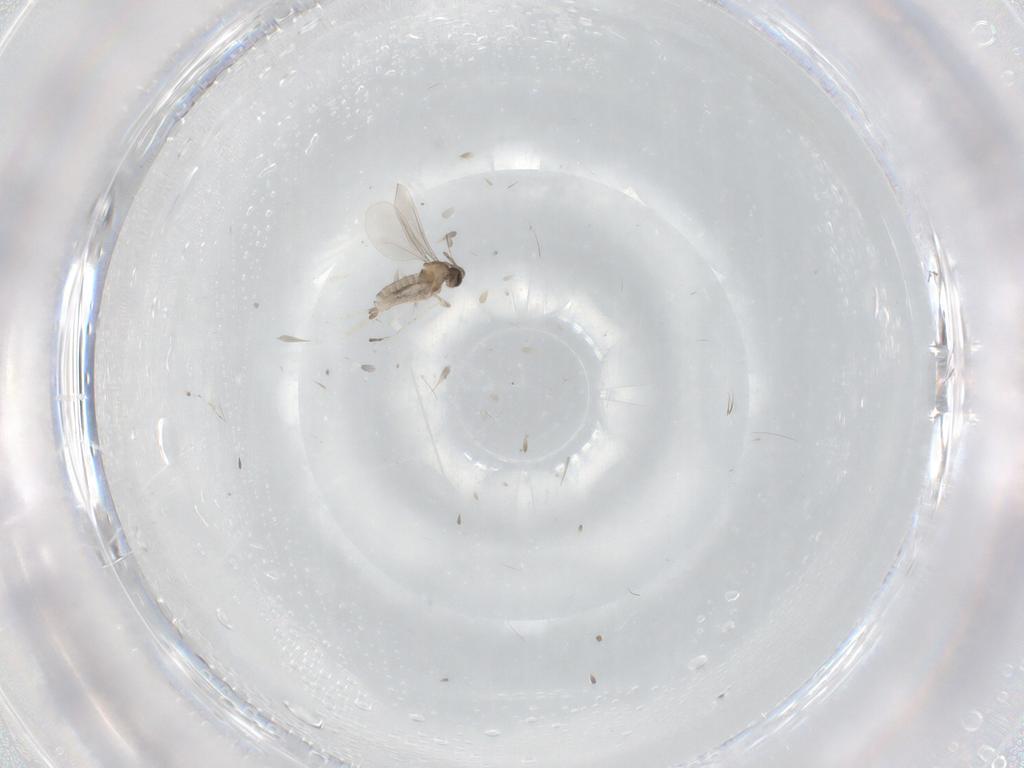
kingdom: Animalia
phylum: Arthropoda
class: Insecta
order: Diptera
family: Cecidomyiidae
